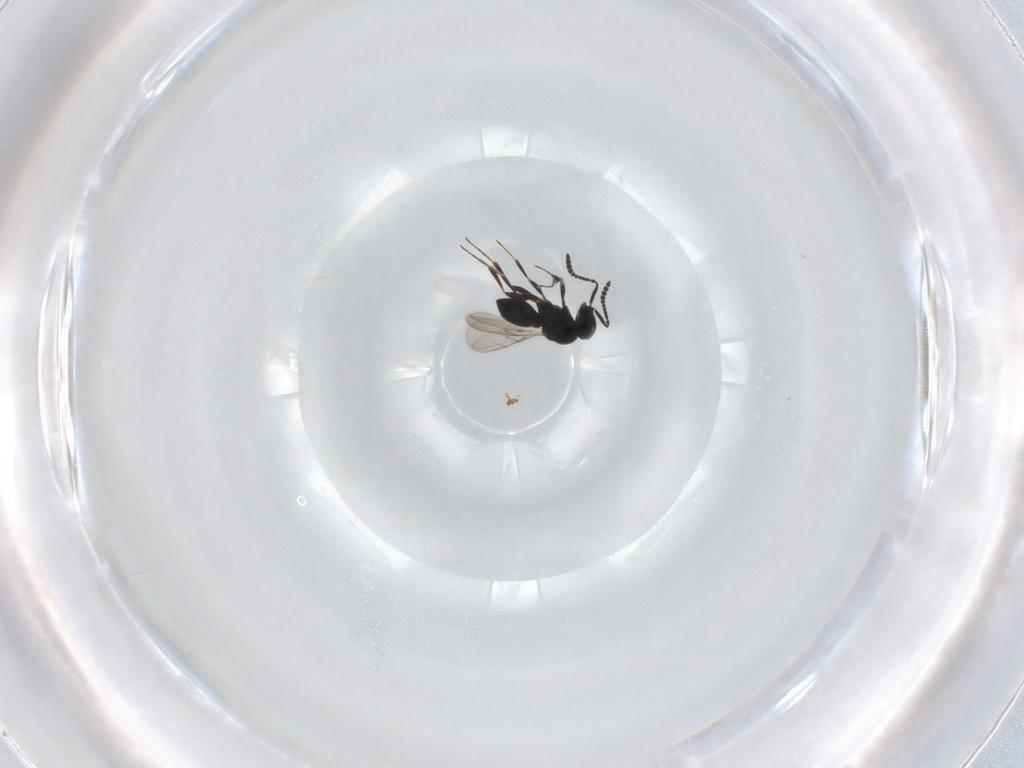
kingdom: Animalia
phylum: Arthropoda
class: Insecta
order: Hymenoptera
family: Scelionidae
